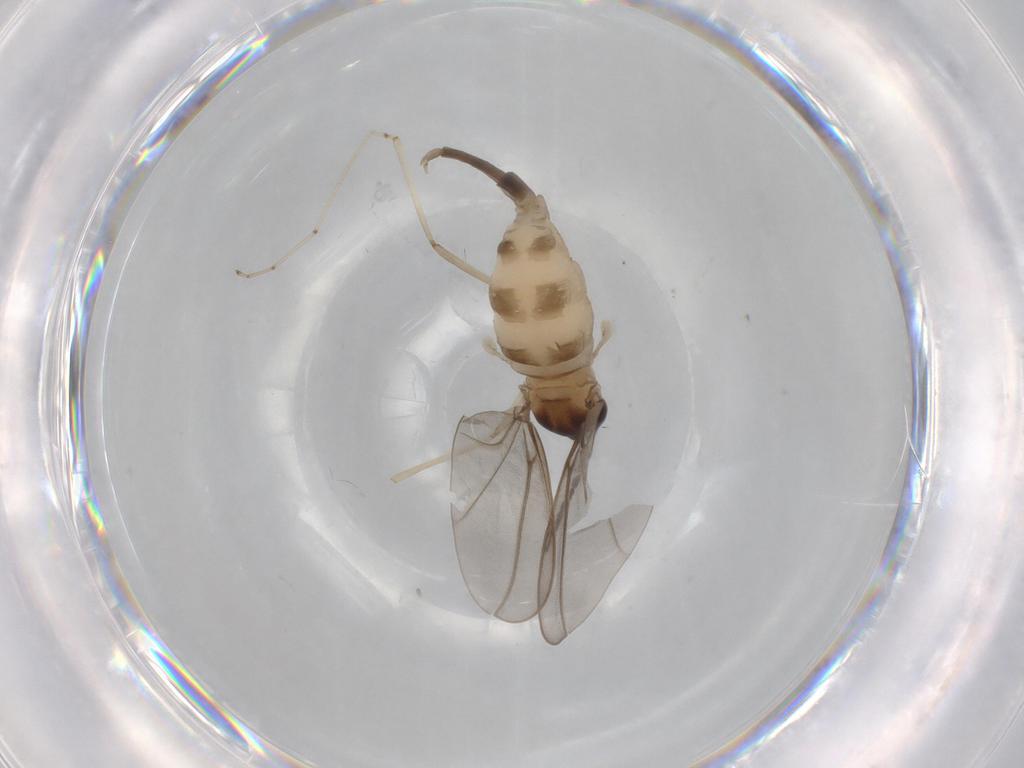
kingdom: Animalia
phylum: Arthropoda
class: Insecta
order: Diptera
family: Cecidomyiidae
